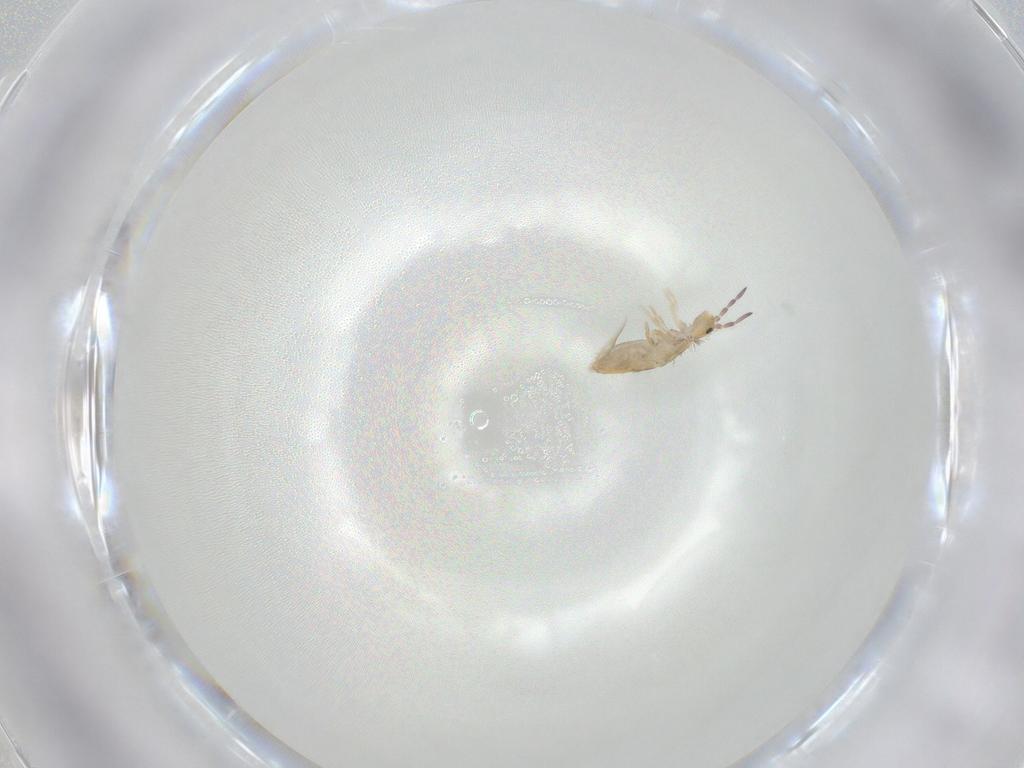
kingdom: Animalia
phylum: Arthropoda
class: Collembola
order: Entomobryomorpha
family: Entomobryidae
